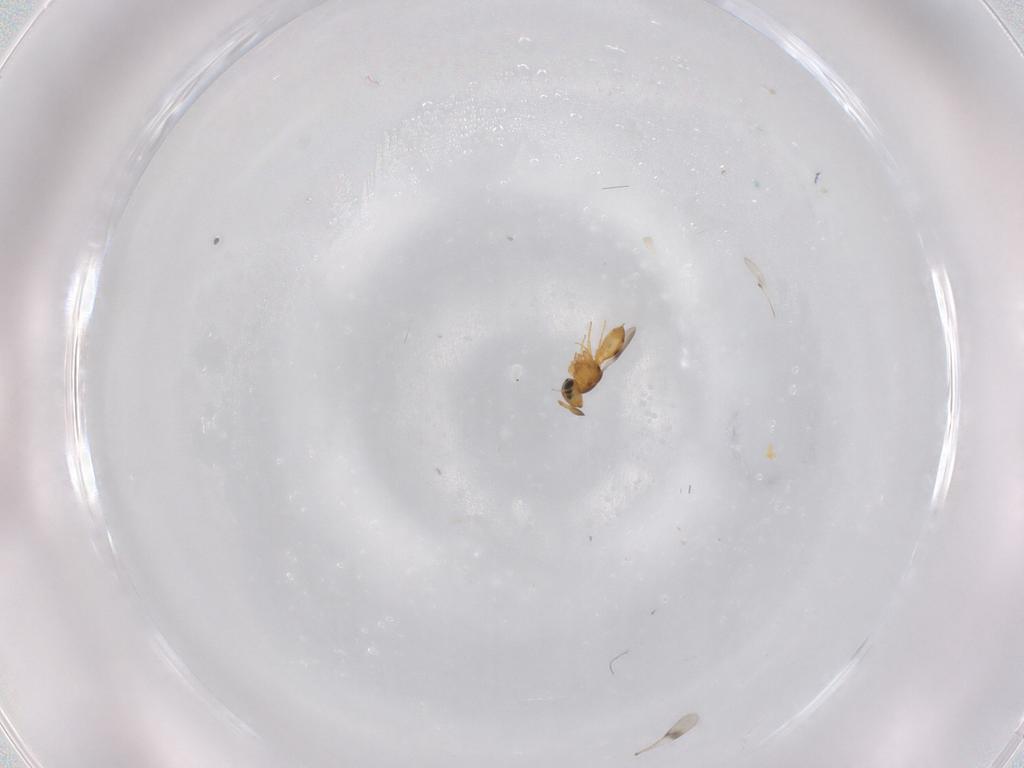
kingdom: Animalia
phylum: Arthropoda
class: Insecta
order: Hymenoptera
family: Scelionidae
